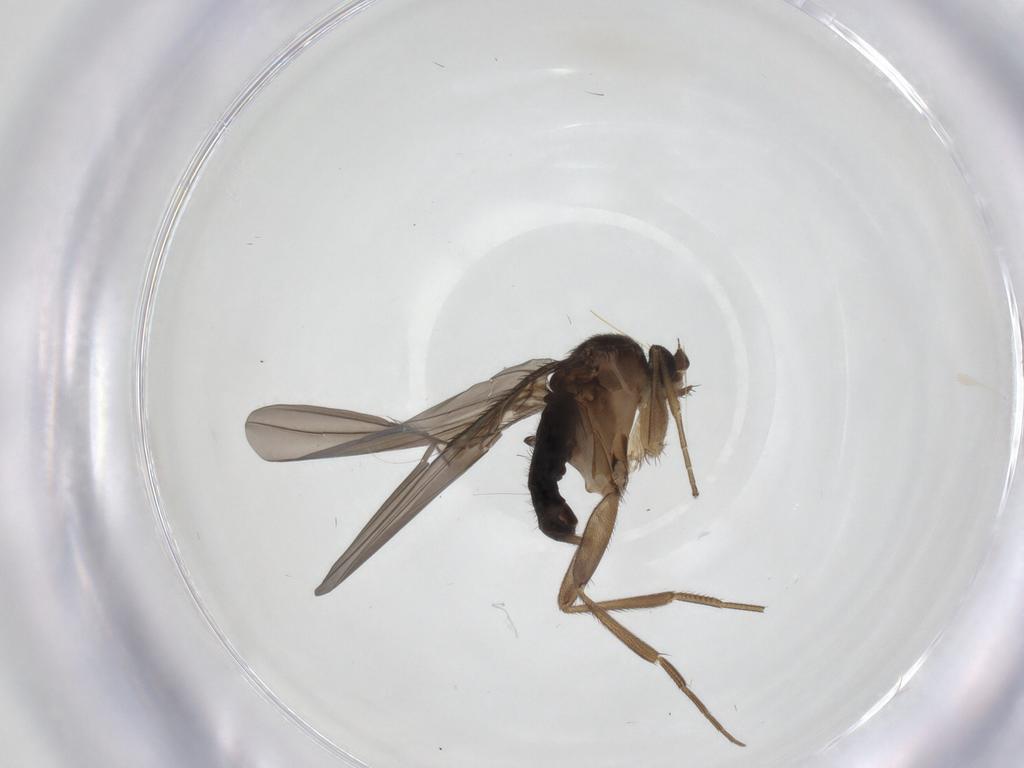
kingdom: Animalia
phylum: Arthropoda
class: Insecta
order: Diptera
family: Phoridae
